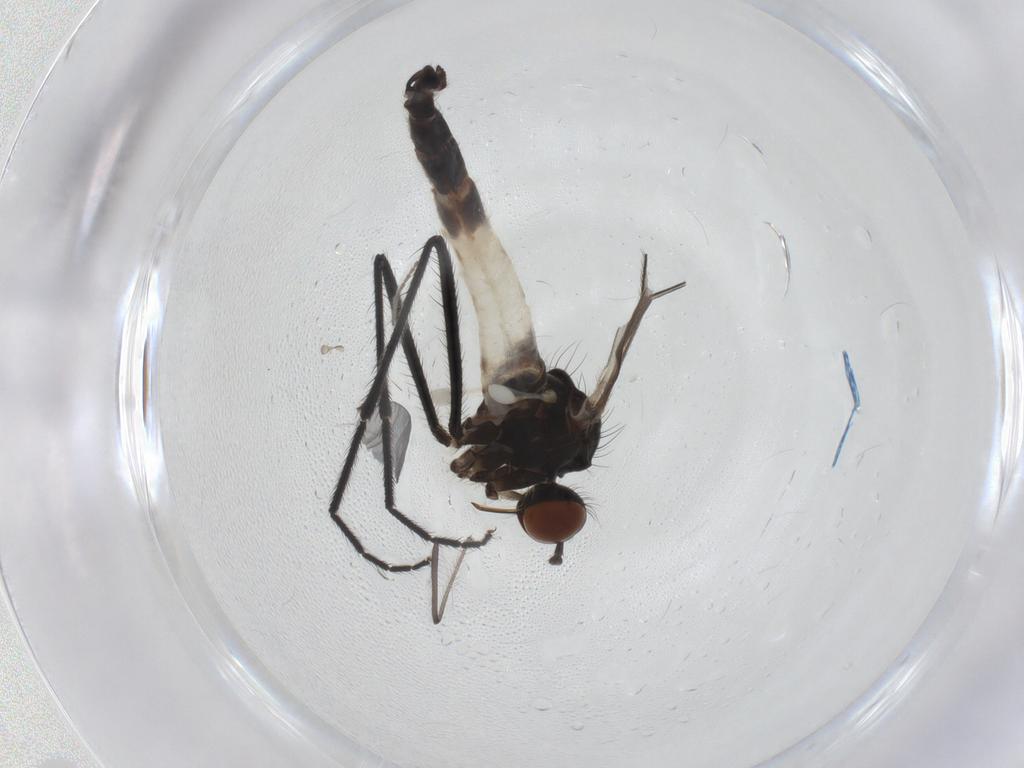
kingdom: Animalia
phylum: Arthropoda
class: Insecta
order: Diptera
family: Empididae
